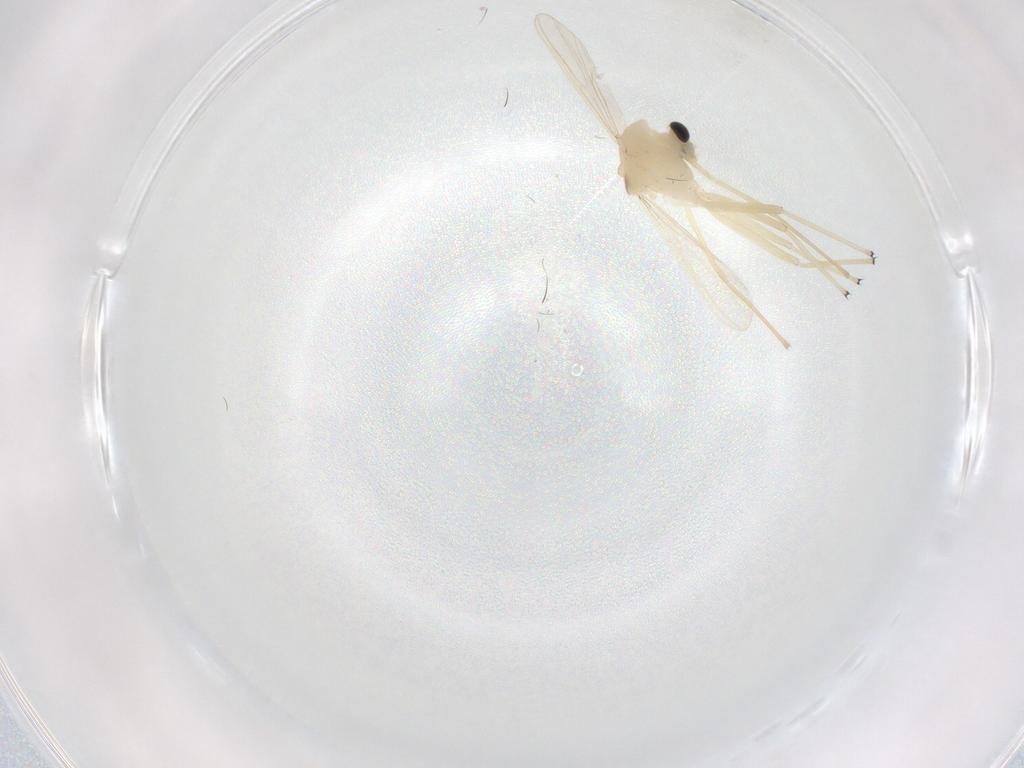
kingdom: Animalia
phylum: Arthropoda
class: Insecta
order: Diptera
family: Chironomidae
